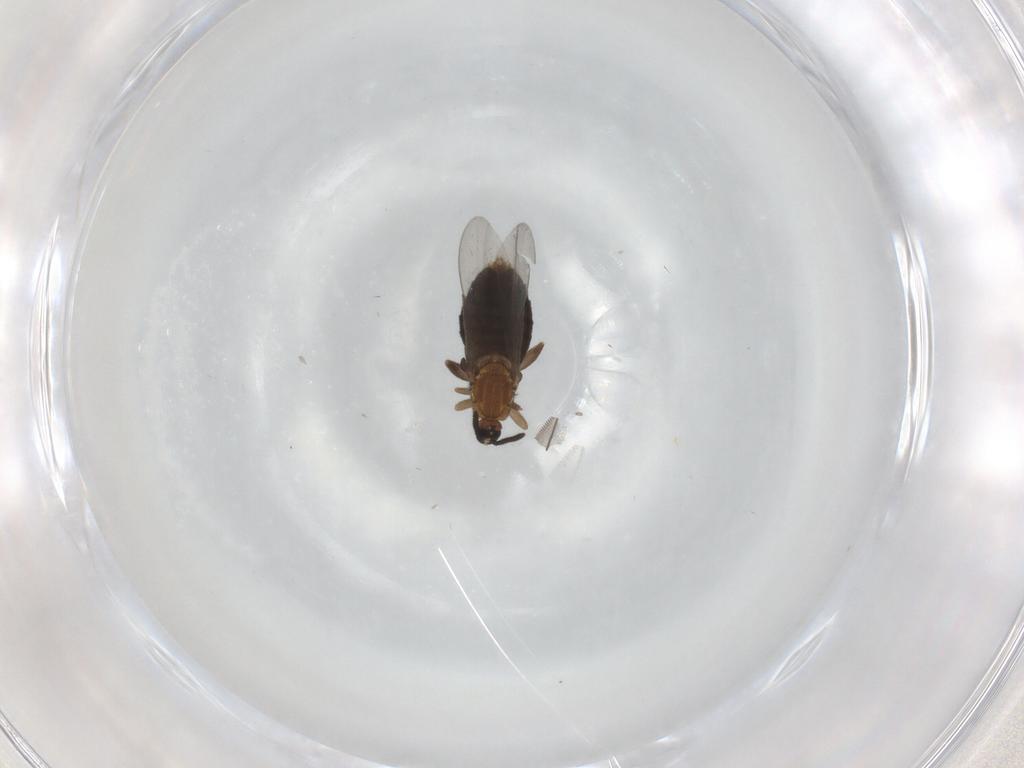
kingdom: Animalia
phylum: Arthropoda
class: Insecta
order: Diptera
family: Scatopsidae
